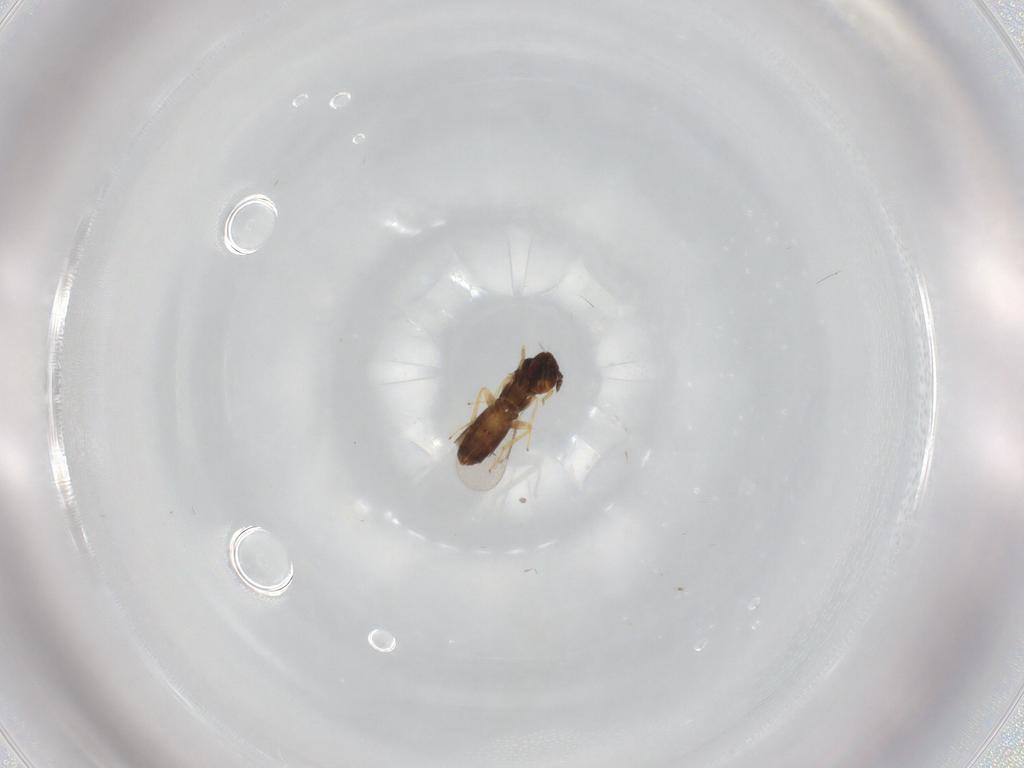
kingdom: Animalia
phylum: Arthropoda
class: Insecta
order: Hymenoptera
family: Eulophidae
